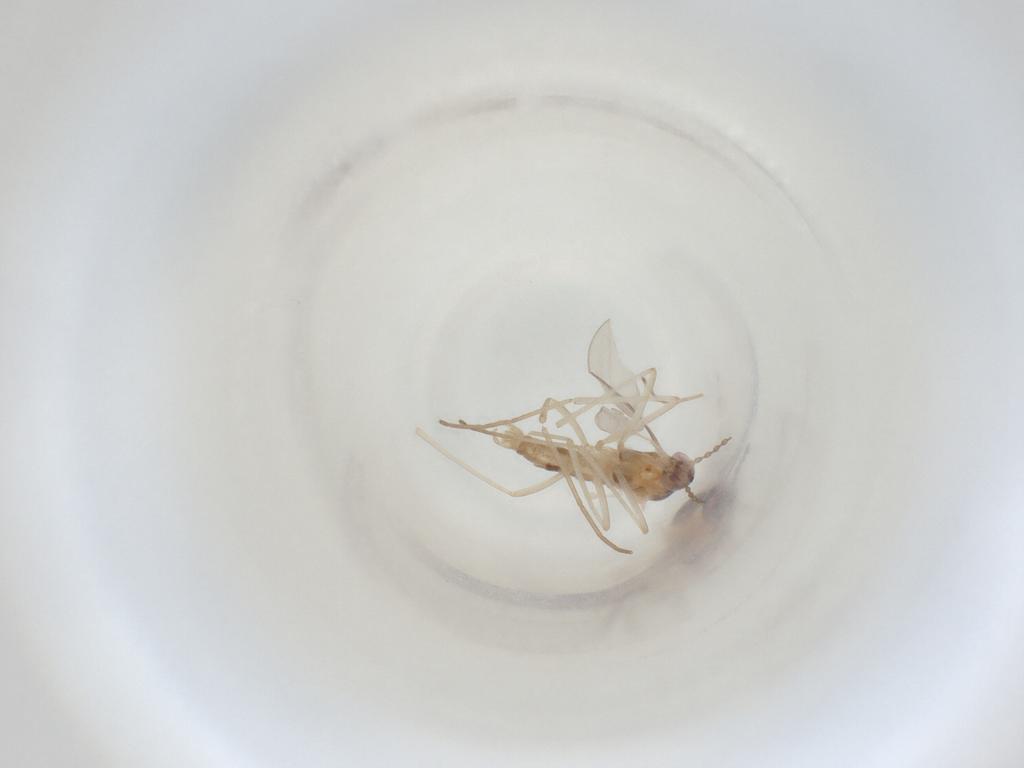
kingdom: Animalia
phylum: Arthropoda
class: Insecta
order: Diptera
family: Cecidomyiidae
